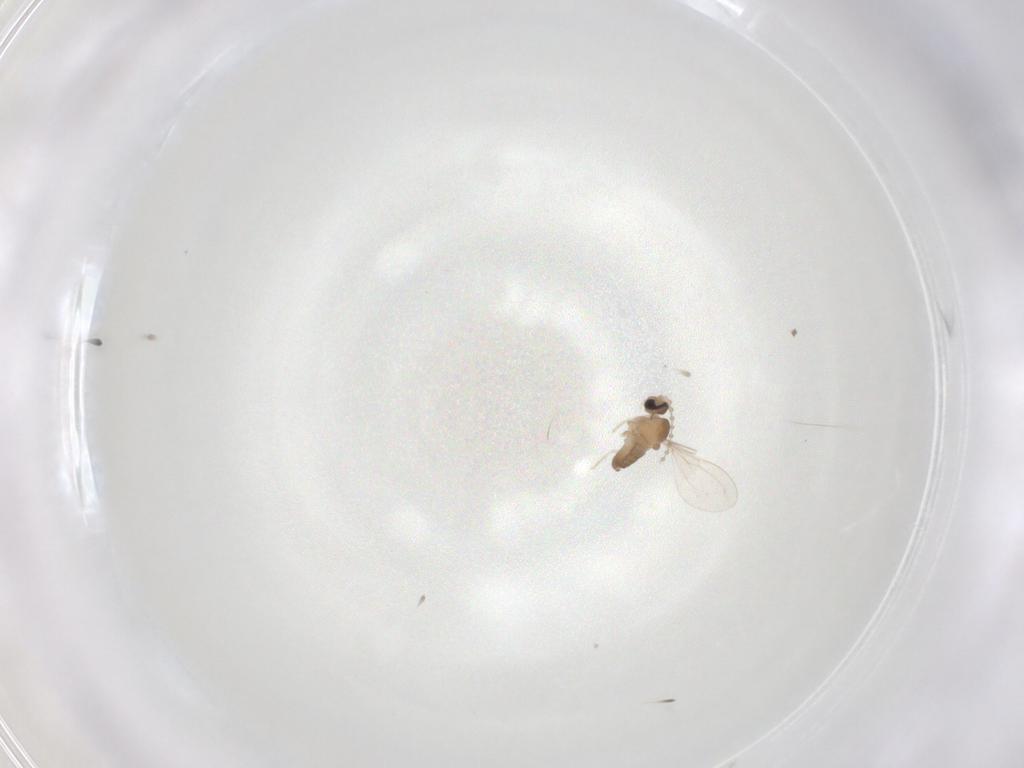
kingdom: Animalia
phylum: Arthropoda
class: Insecta
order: Diptera
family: Cecidomyiidae
